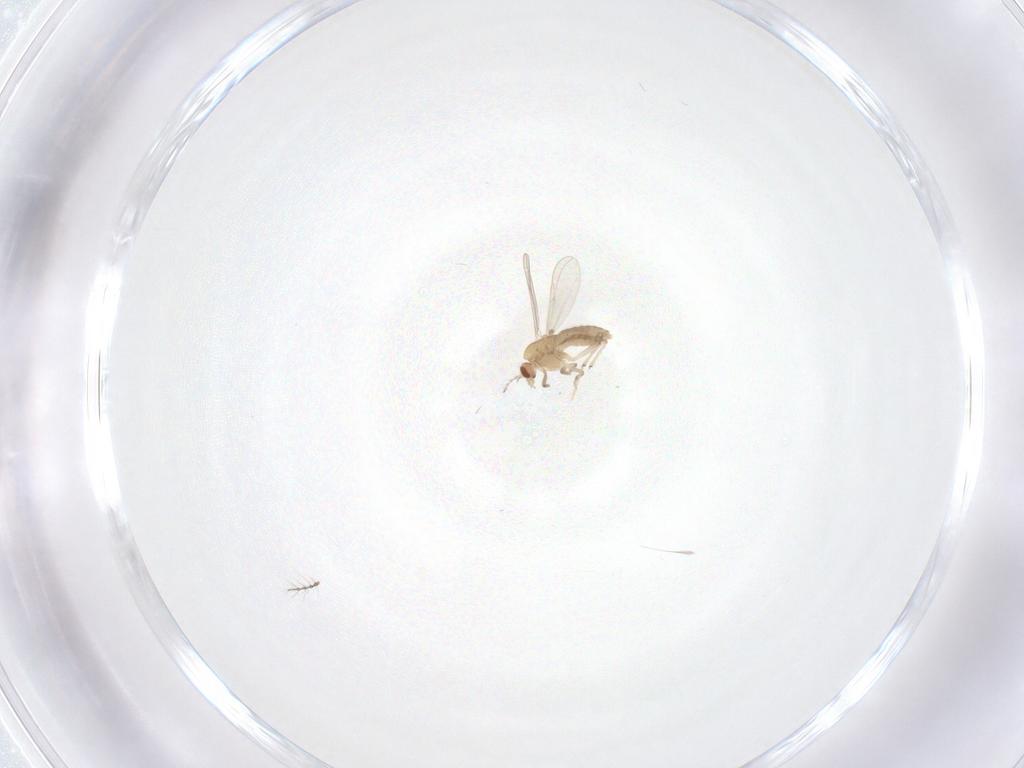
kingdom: Animalia
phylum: Arthropoda
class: Insecta
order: Diptera
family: Chironomidae
